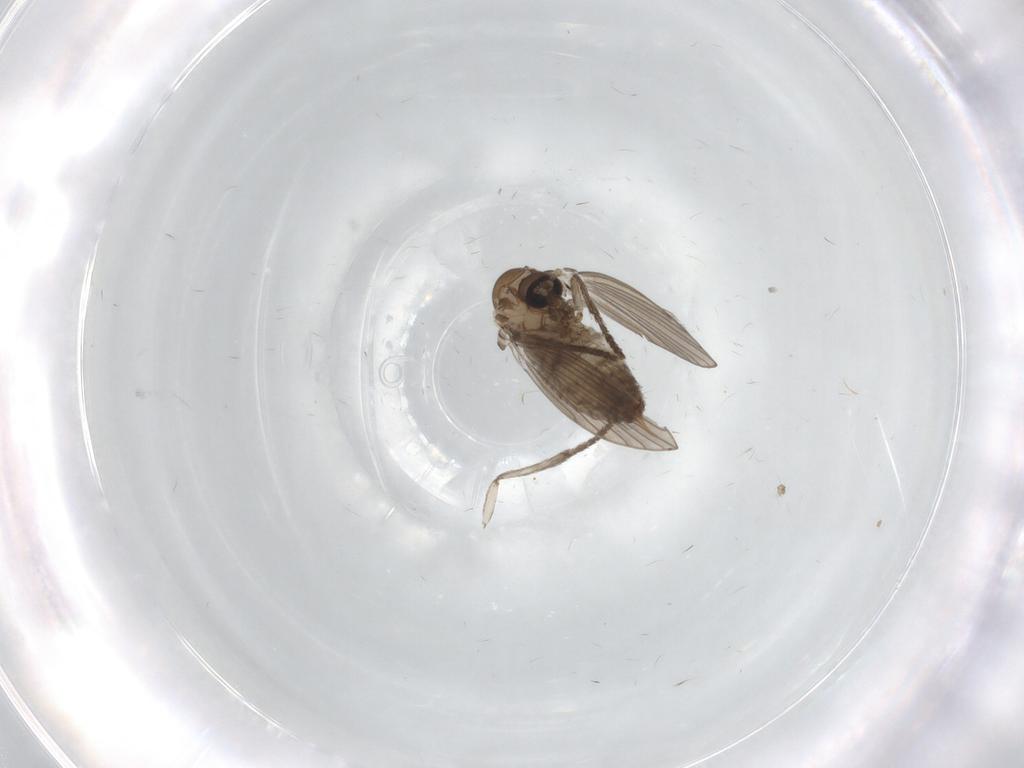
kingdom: Animalia
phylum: Arthropoda
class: Insecta
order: Diptera
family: Psychodidae
